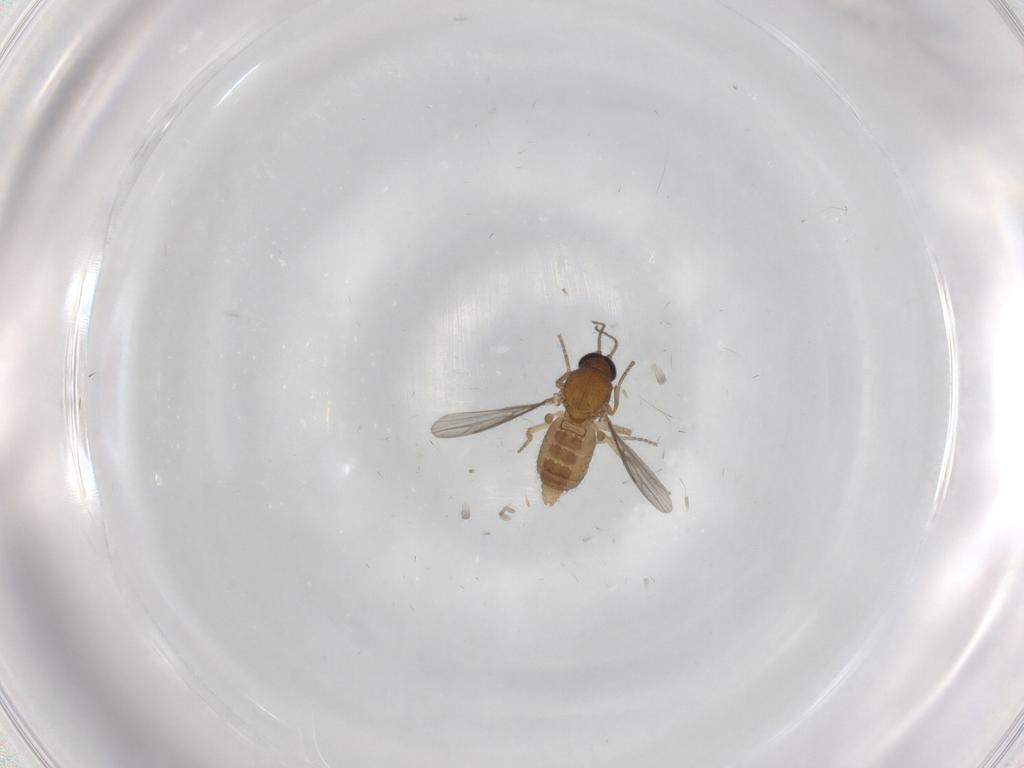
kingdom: Animalia
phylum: Arthropoda
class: Insecta
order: Diptera
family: Ceratopogonidae
